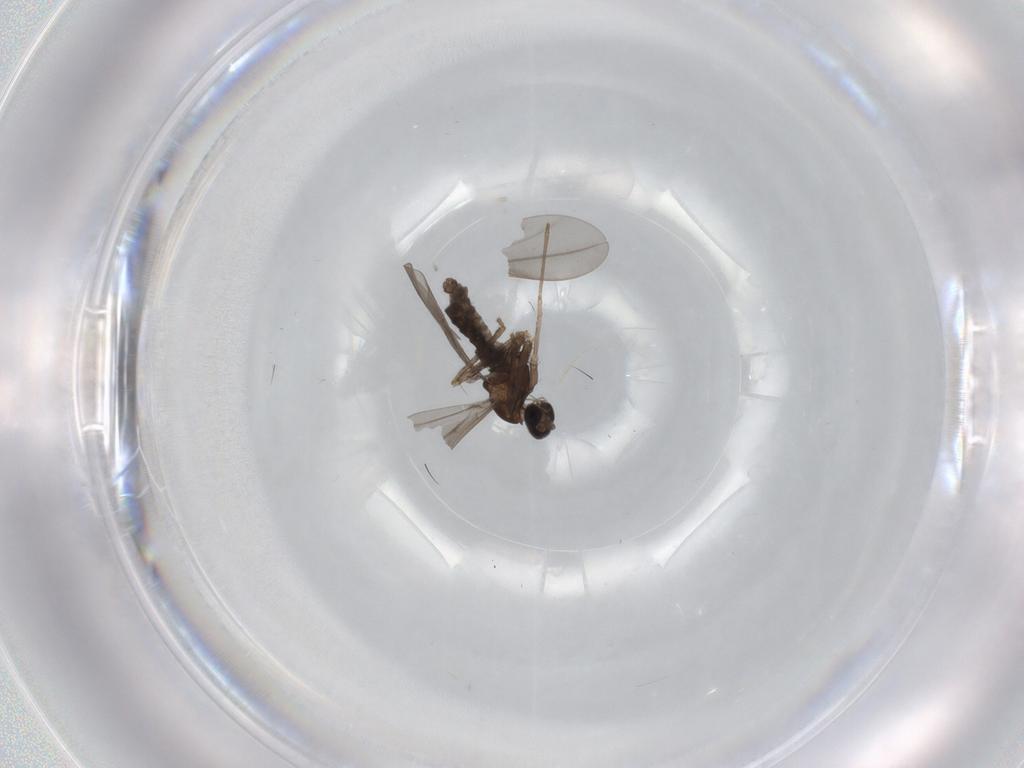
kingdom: Animalia
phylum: Arthropoda
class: Insecta
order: Diptera
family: Cecidomyiidae
